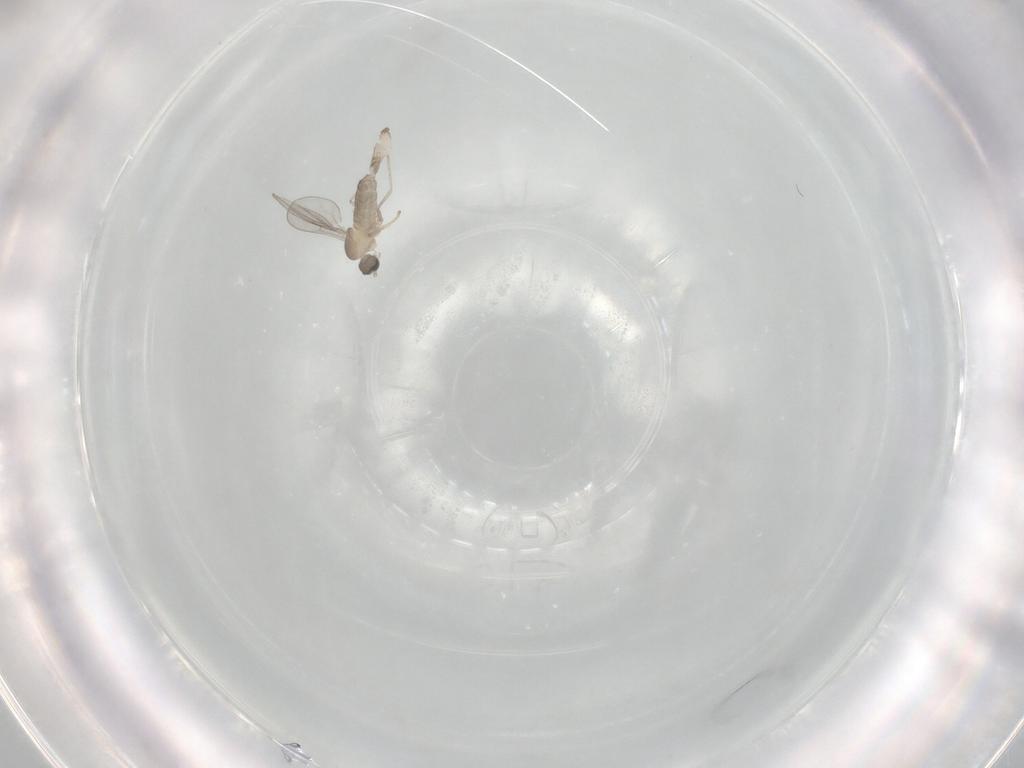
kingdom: Animalia
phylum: Arthropoda
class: Insecta
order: Diptera
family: Cecidomyiidae
